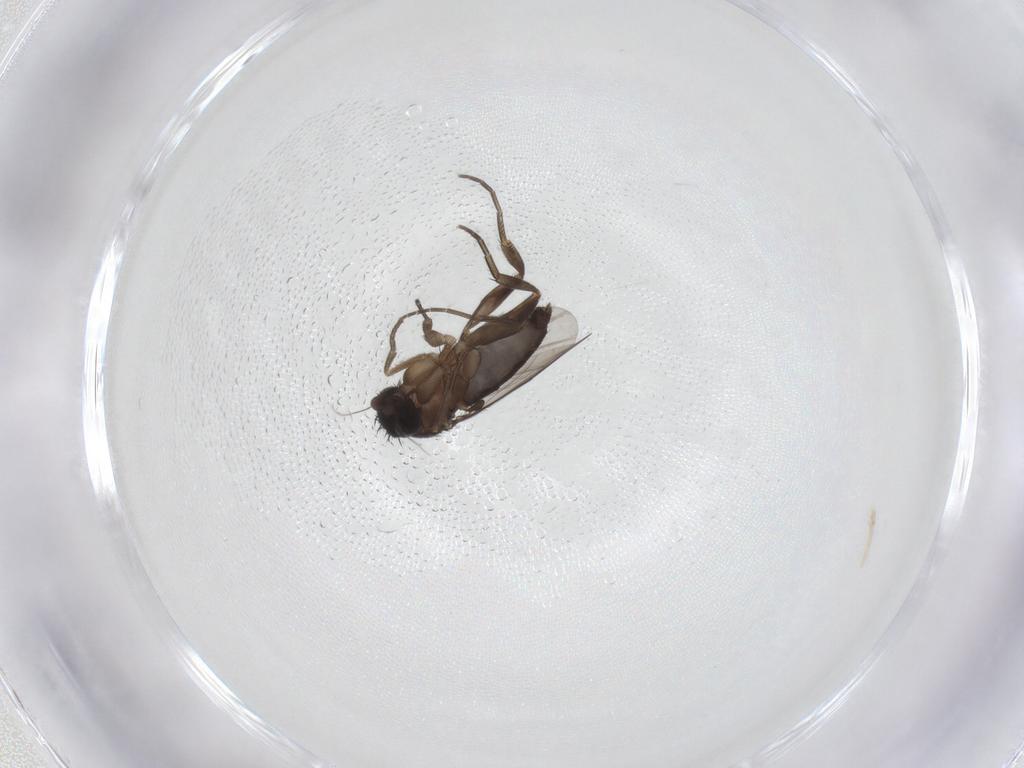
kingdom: Animalia
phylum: Arthropoda
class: Insecta
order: Diptera
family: Phoridae
